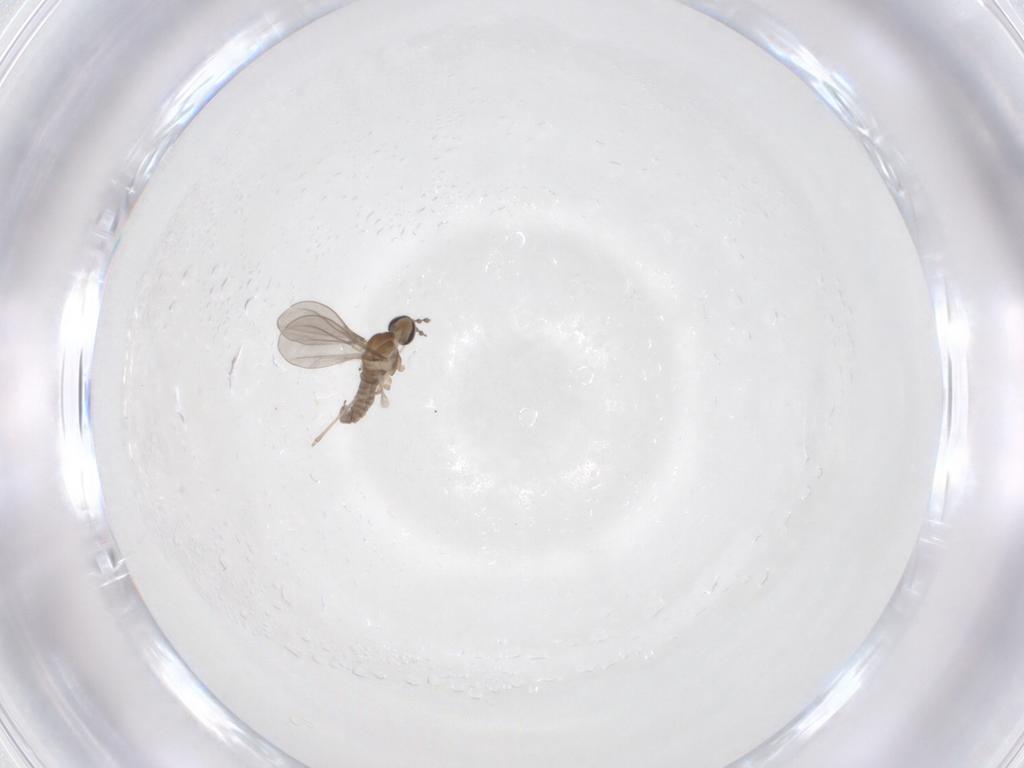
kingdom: Animalia
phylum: Arthropoda
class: Insecta
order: Diptera
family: Cecidomyiidae
